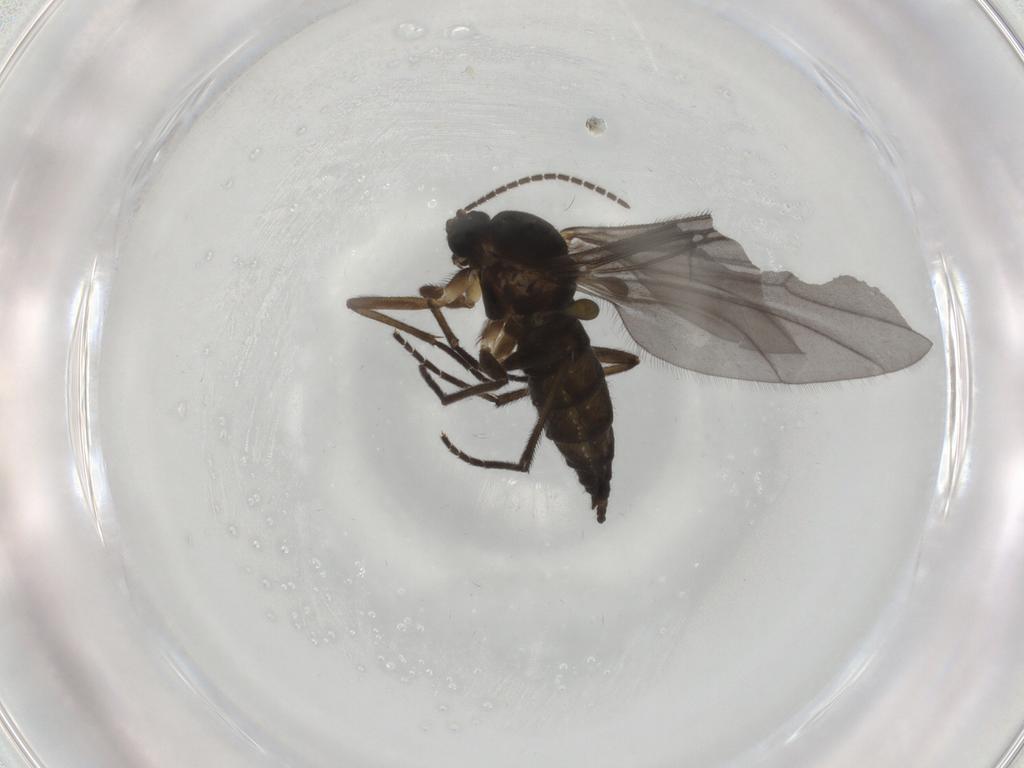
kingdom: Animalia
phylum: Arthropoda
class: Insecta
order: Diptera
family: Sciaridae
